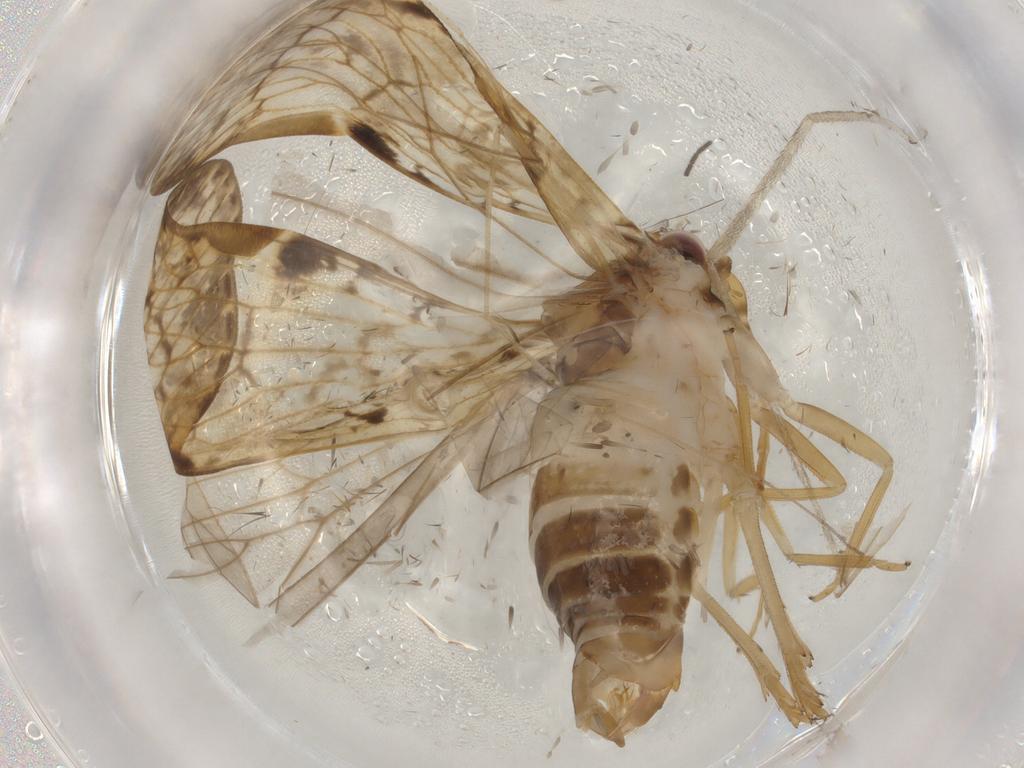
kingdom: Animalia
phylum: Arthropoda
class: Insecta
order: Hemiptera
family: Cixiidae
